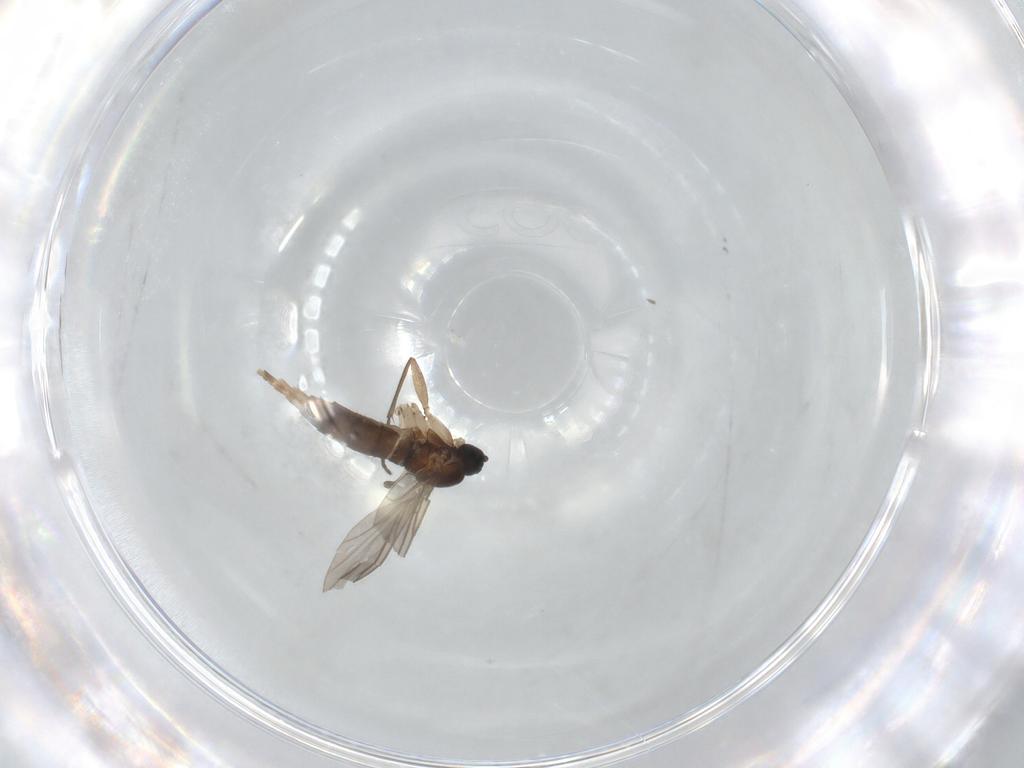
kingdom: Animalia
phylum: Arthropoda
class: Insecta
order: Diptera
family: Sciaridae
